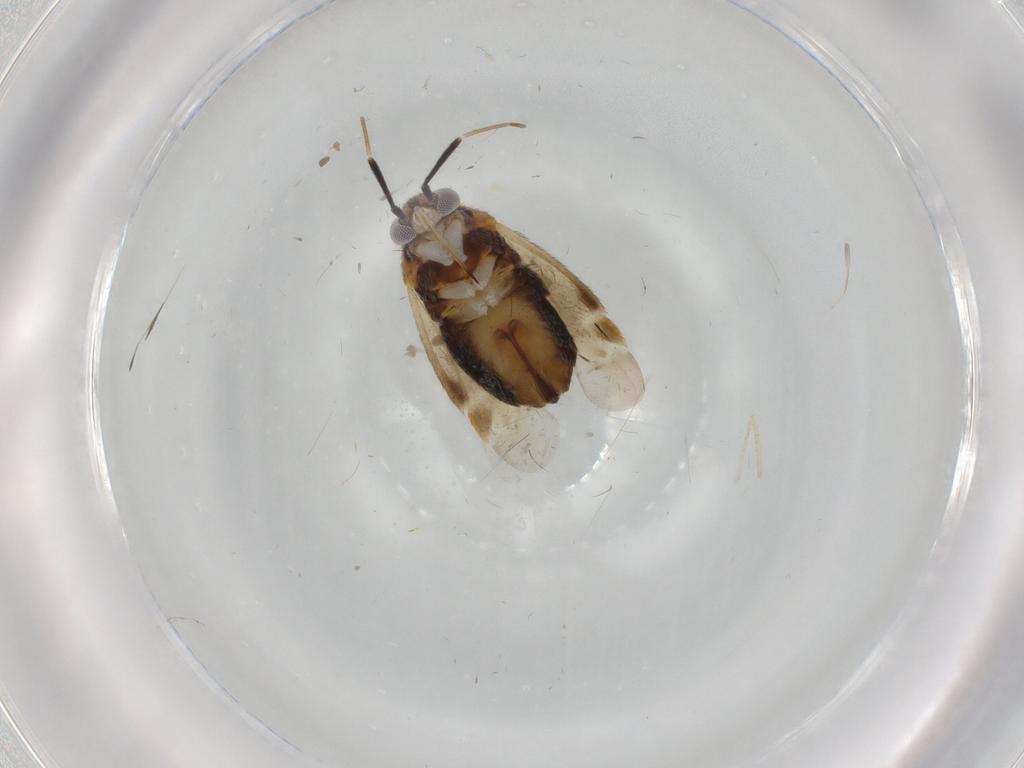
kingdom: Animalia
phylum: Arthropoda
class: Insecta
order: Hemiptera
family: Miridae
